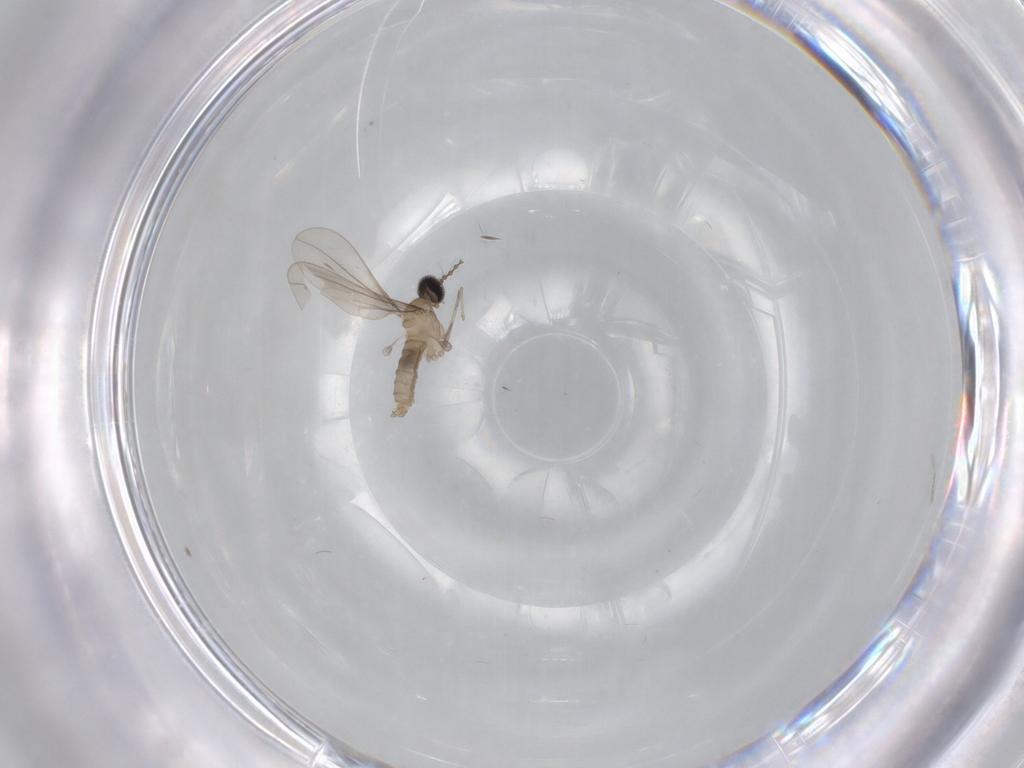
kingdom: Animalia
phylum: Arthropoda
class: Insecta
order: Diptera
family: Cecidomyiidae
